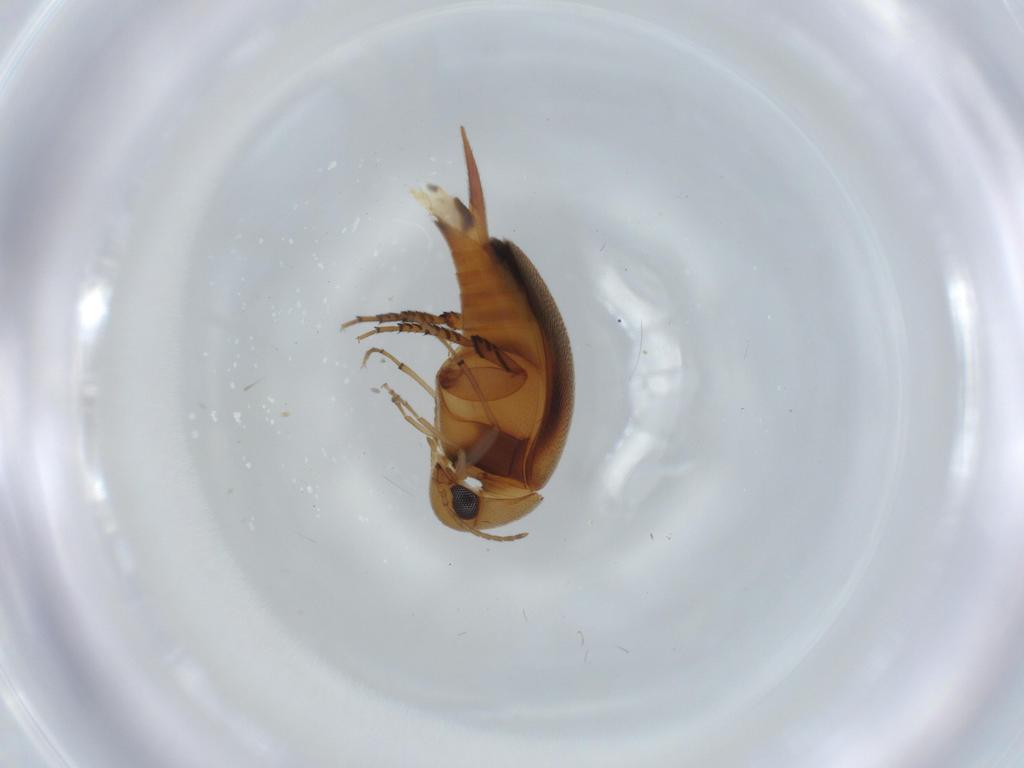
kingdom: Animalia
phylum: Arthropoda
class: Insecta
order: Coleoptera
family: Mordellidae
